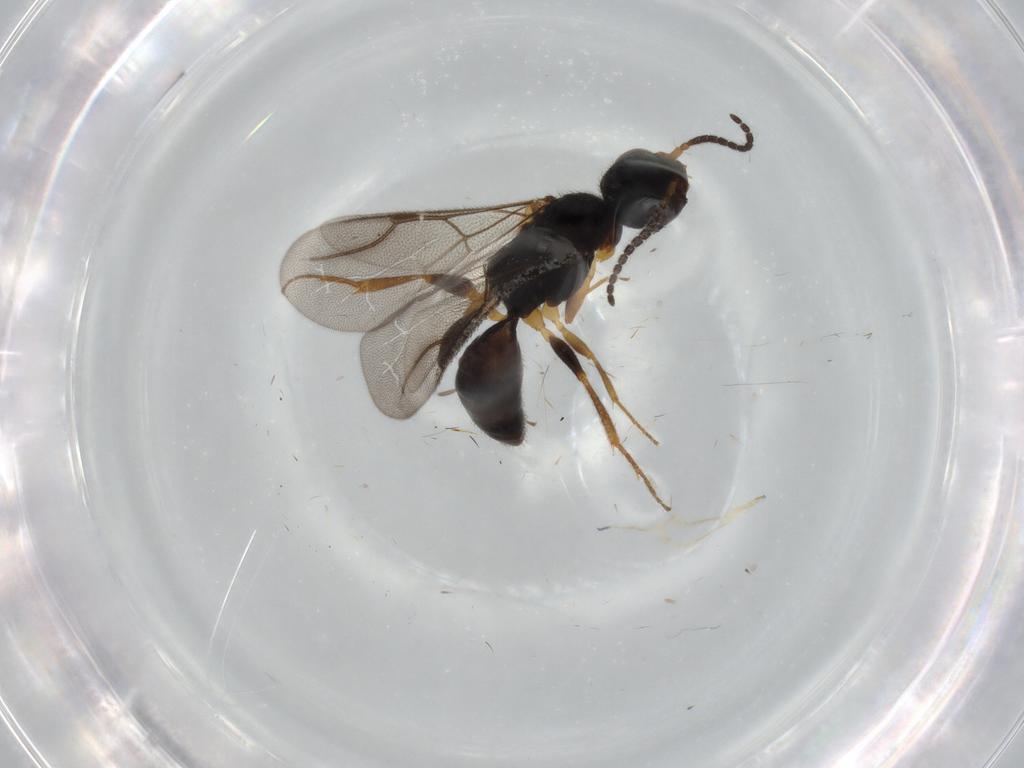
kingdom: Animalia
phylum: Arthropoda
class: Insecta
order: Hymenoptera
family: Bethylidae
